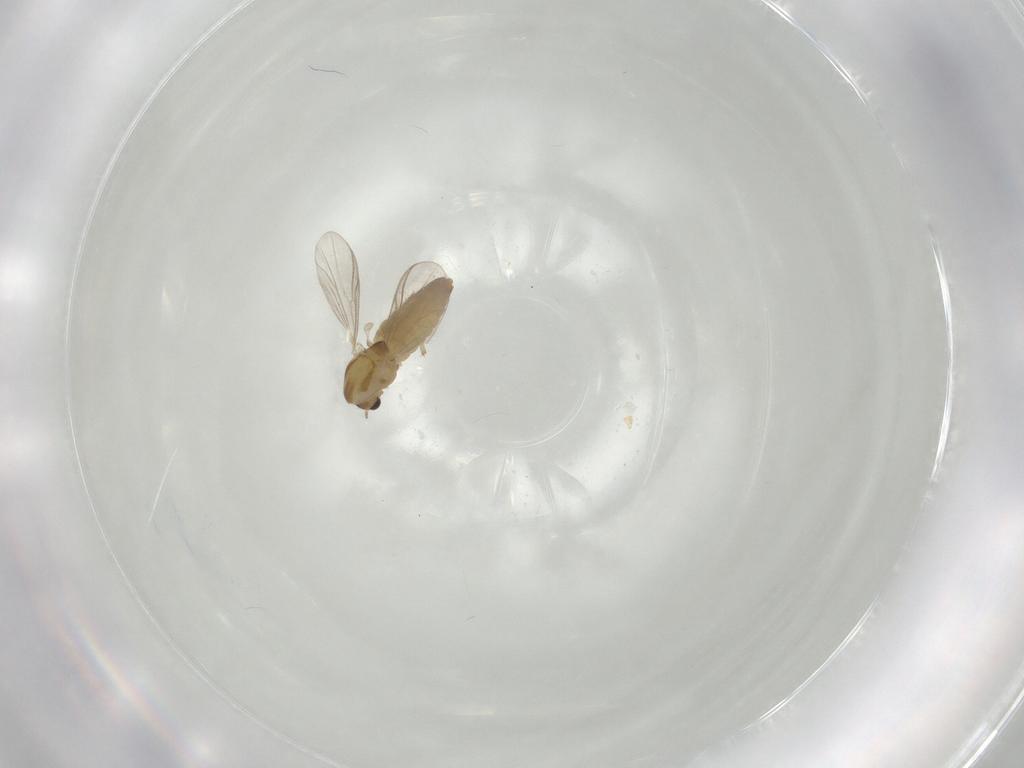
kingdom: Animalia
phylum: Arthropoda
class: Insecta
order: Diptera
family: Chironomidae
